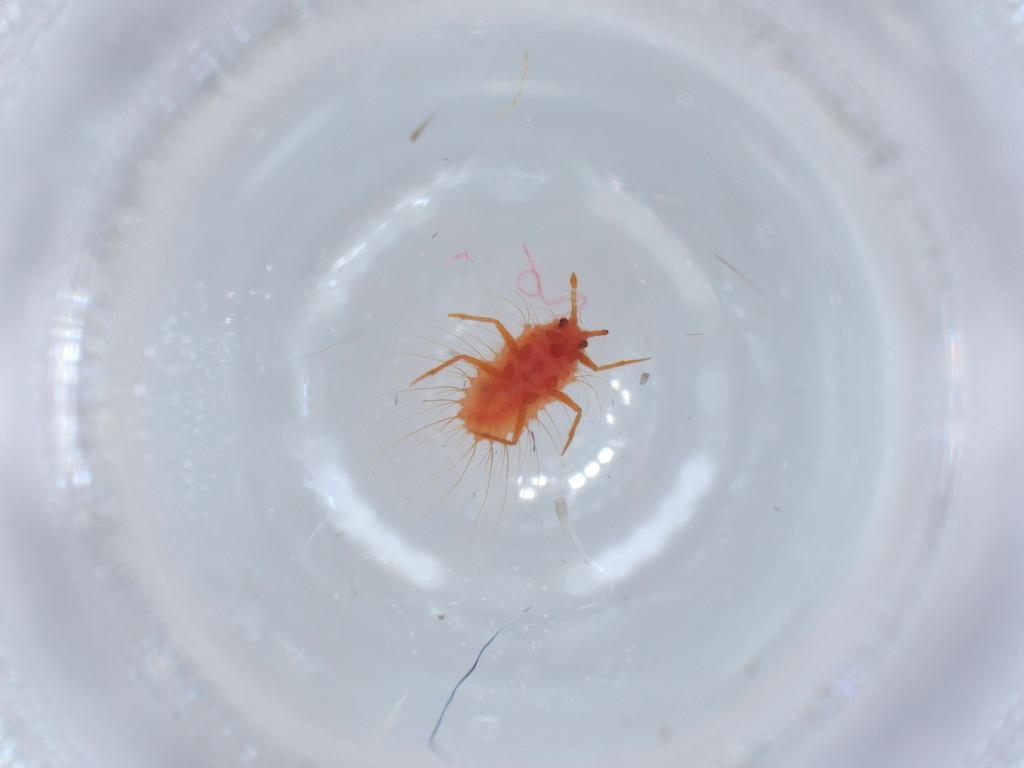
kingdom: Animalia
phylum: Arthropoda
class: Insecta
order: Hemiptera
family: Monophlebidae
